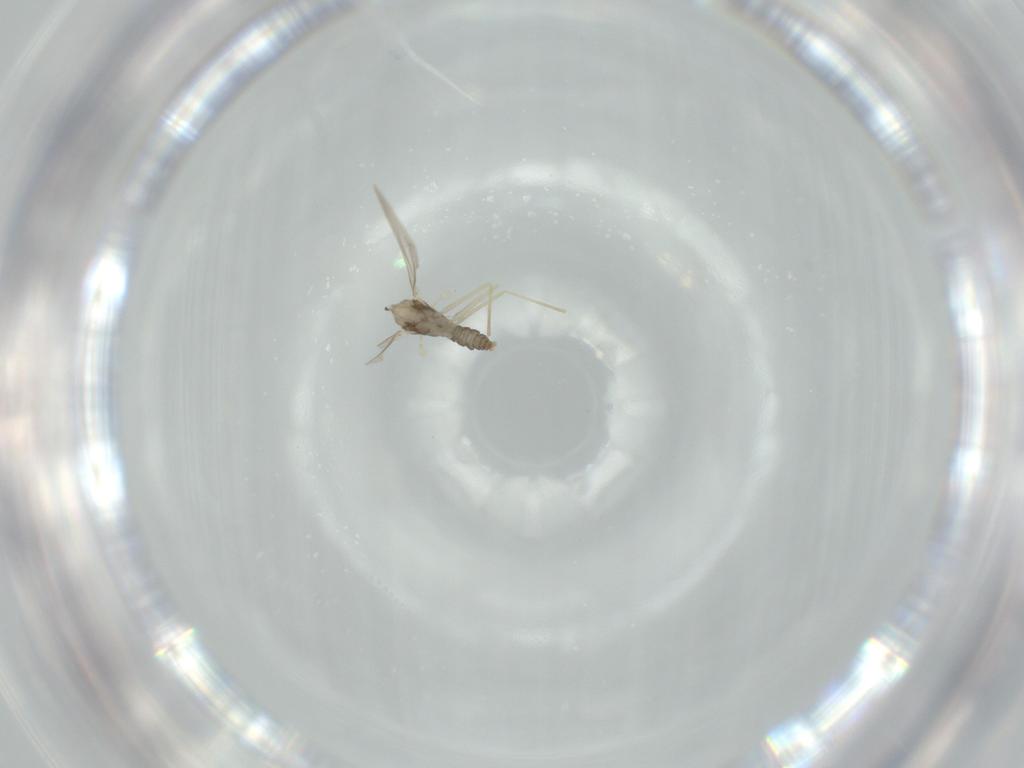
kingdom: Animalia
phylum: Arthropoda
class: Insecta
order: Diptera
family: Cecidomyiidae
